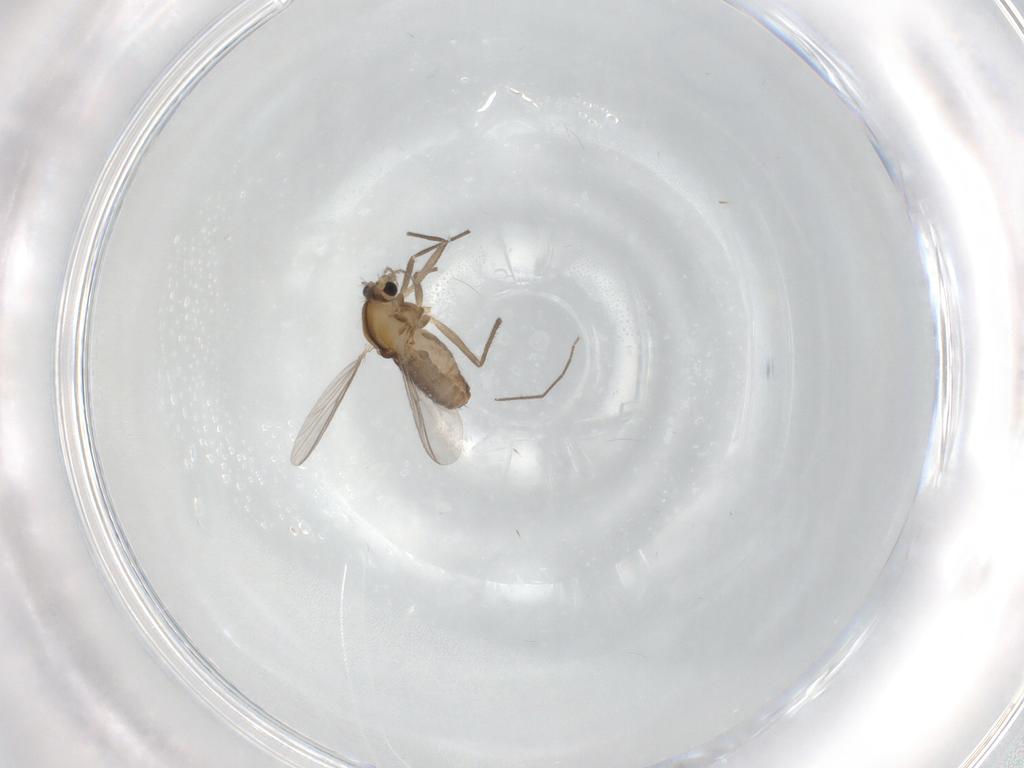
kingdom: Animalia
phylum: Arthropoda
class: Insecta
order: Diptera
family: Chironomidae
